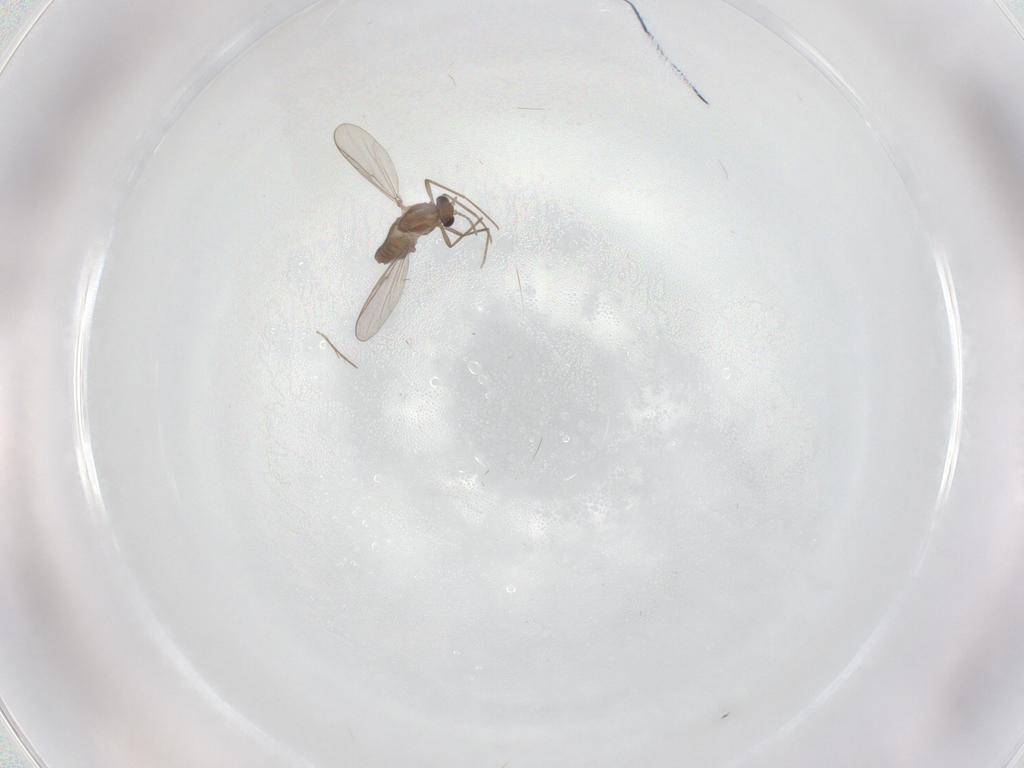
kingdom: Animalia
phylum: Arthropoda
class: Insecta
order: Diptera
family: Chironomidae
